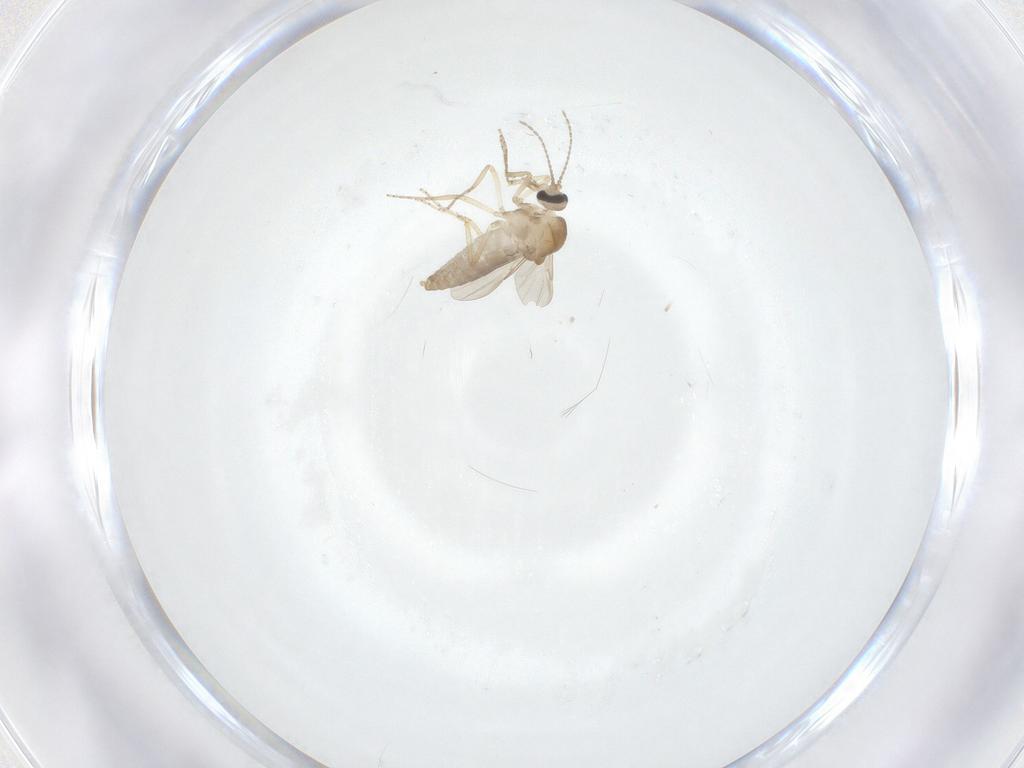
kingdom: Animalia
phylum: Arthropoda
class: Insecta
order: Diptera
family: Ceratopogonidae
